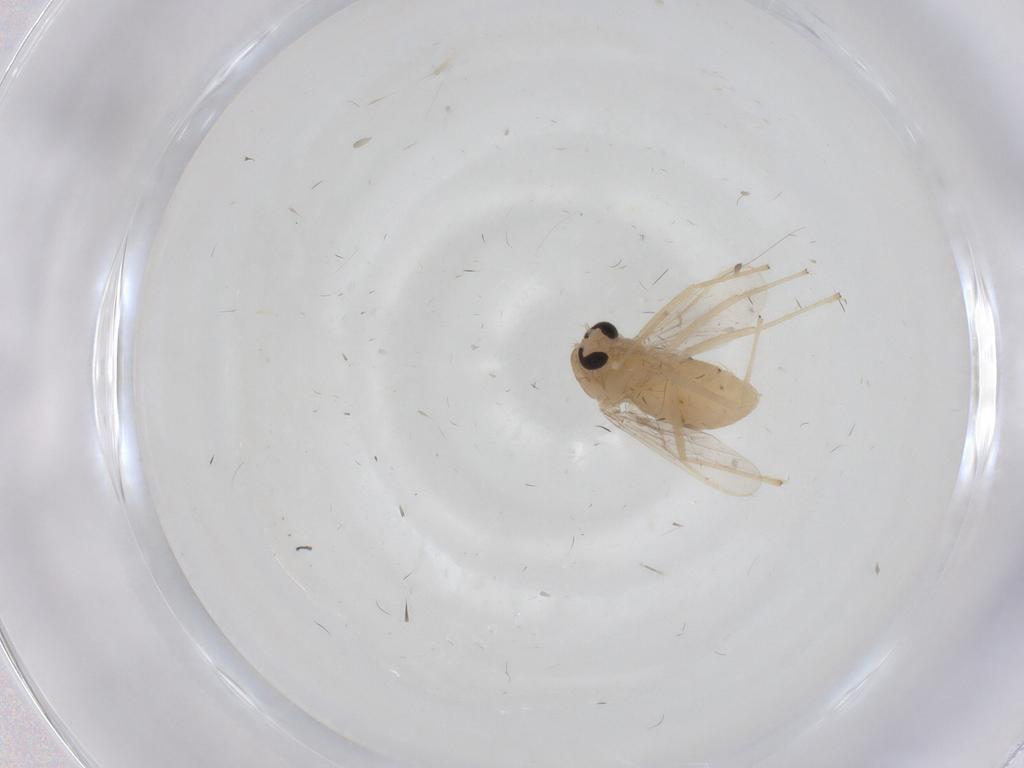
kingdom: Animalia
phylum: Arthropoda
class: Insecta
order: Diptera
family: Chironomidae
